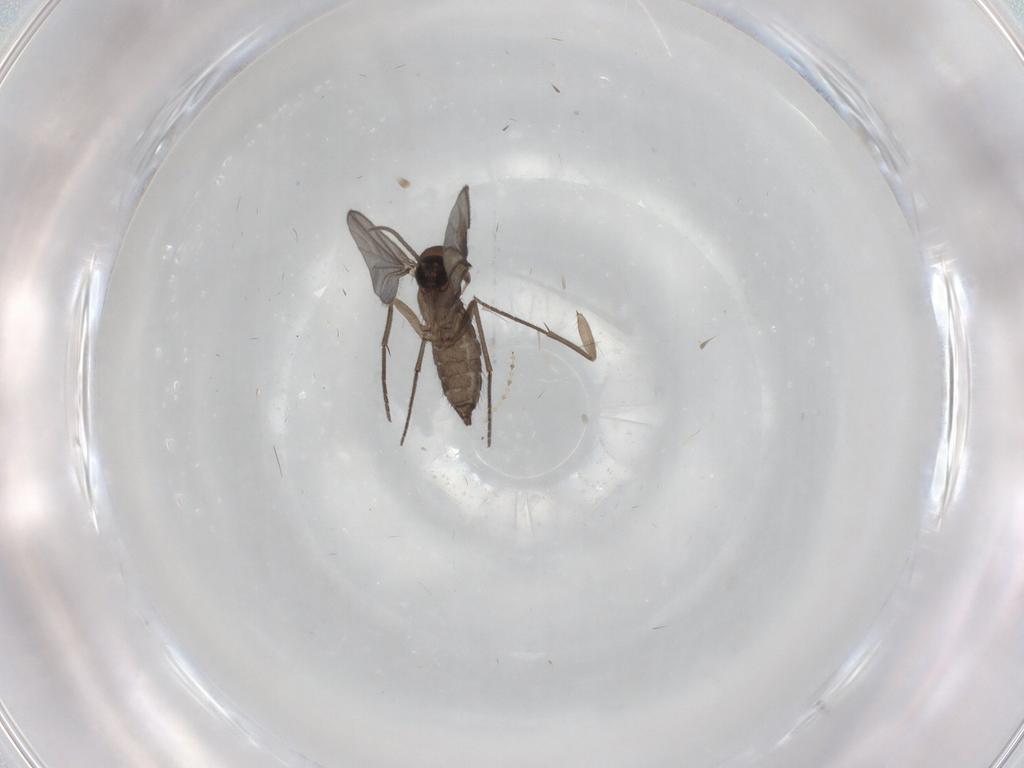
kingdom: Animalia
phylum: Arthropoda
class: Insecta
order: Diptera
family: Sciaridae
